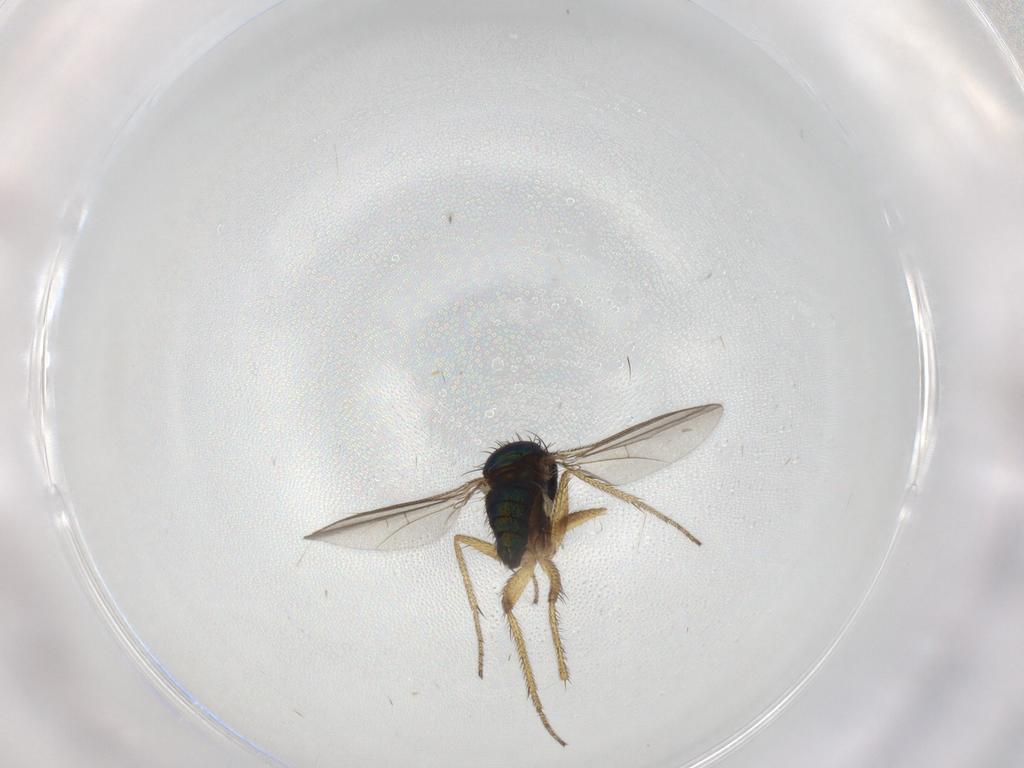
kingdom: Animalia
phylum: Arthropoda
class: Insecta
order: Diptera
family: Dolichopodidae
